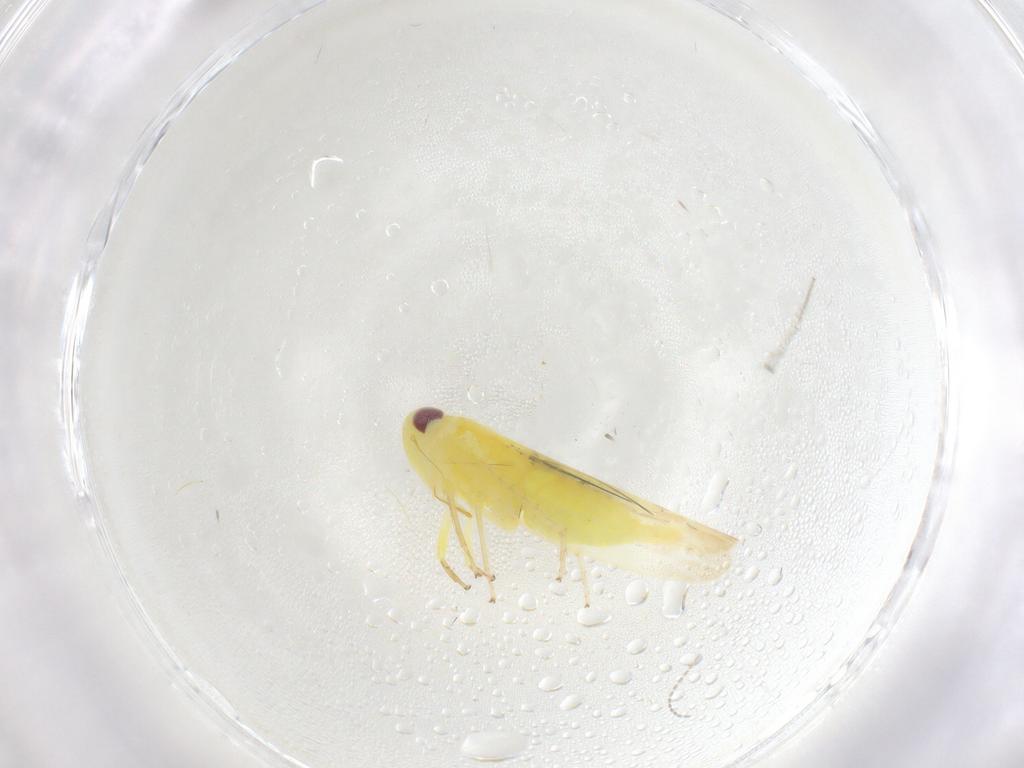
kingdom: Animalia
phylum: Arthropoda
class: Insecta
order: Hemiptera
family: Cicadellidae
